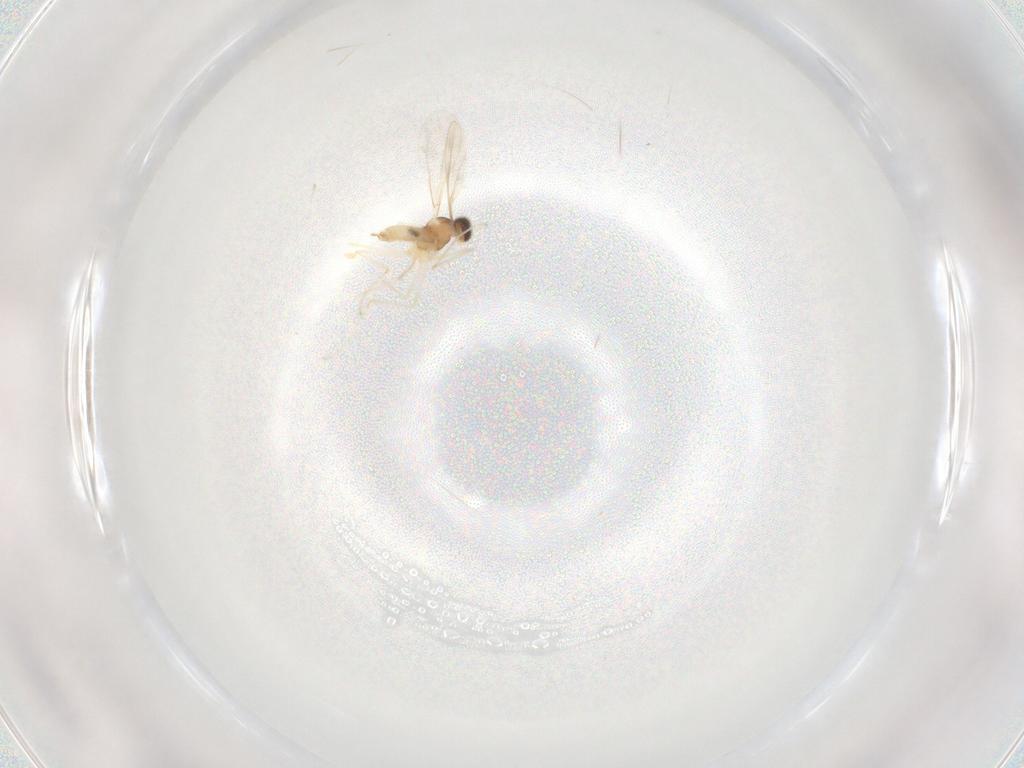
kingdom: Animalia
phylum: Arthropoda
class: Insecta
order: Diptera
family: Cecidomyiidae
